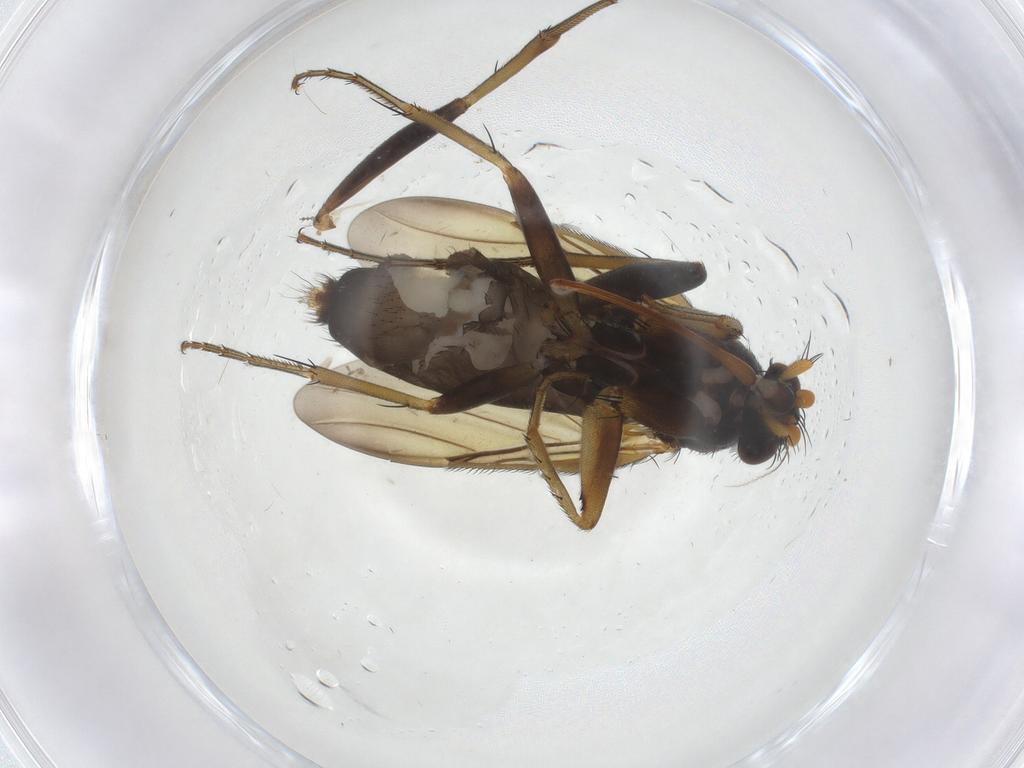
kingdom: Animalia
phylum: Arthropoda
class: Insecta
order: Diptera
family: Phoridae
